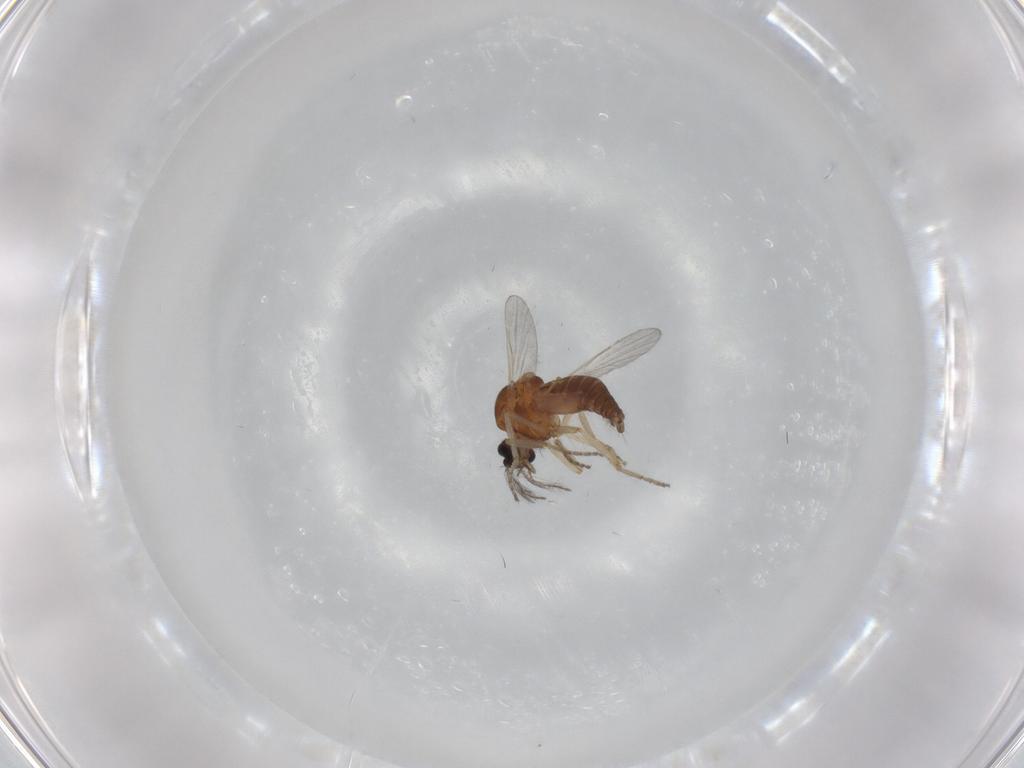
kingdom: Animalia
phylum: Arthropoda
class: Insecta
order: Diptera
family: Ceratopogonidae
